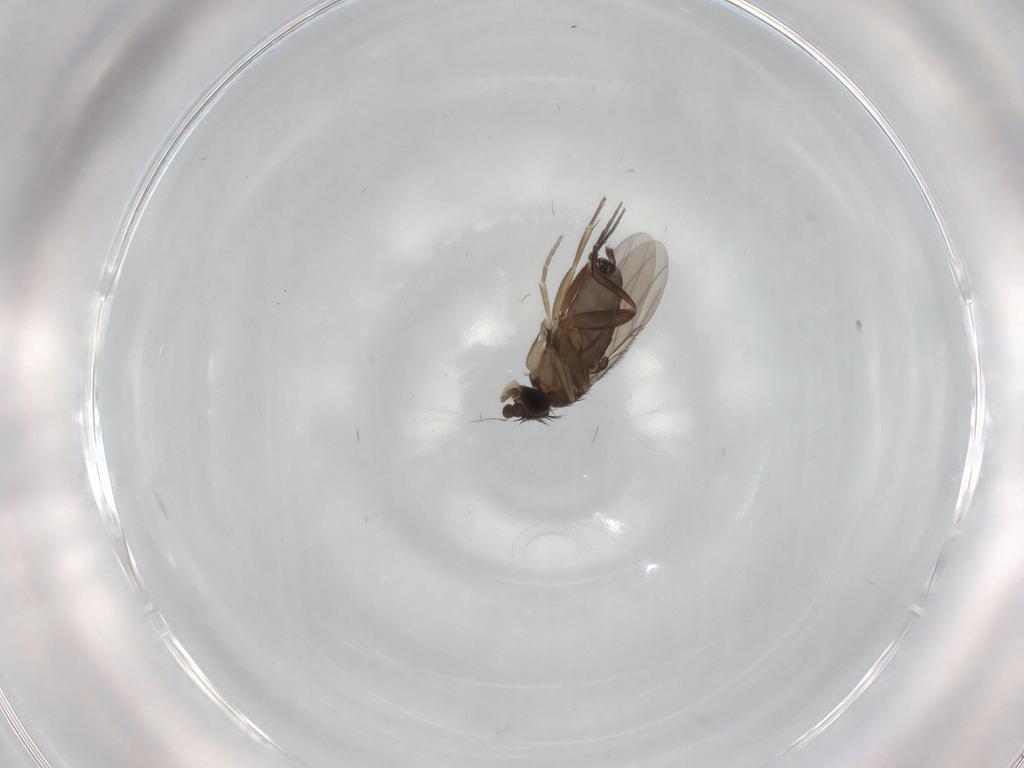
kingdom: Animalia
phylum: Arthropoda
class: Insecta
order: Diptera
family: Phoridae
